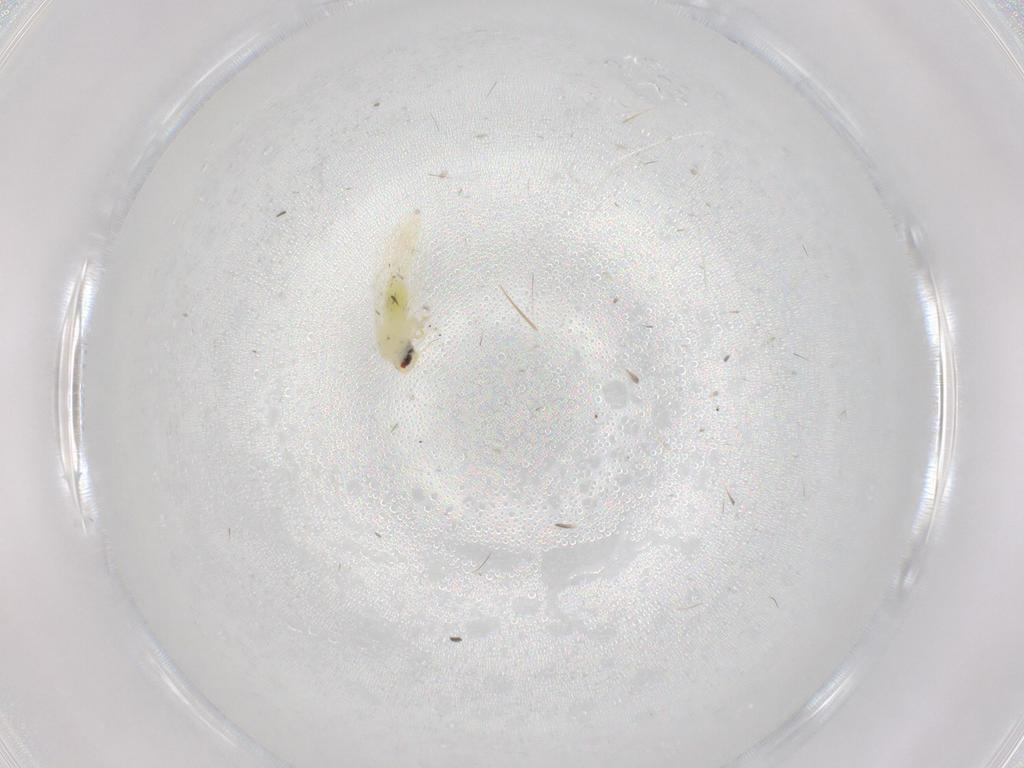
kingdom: Animalia
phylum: Arthropoda
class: Insecta
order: Hemiptera
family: Aleyrodidae
